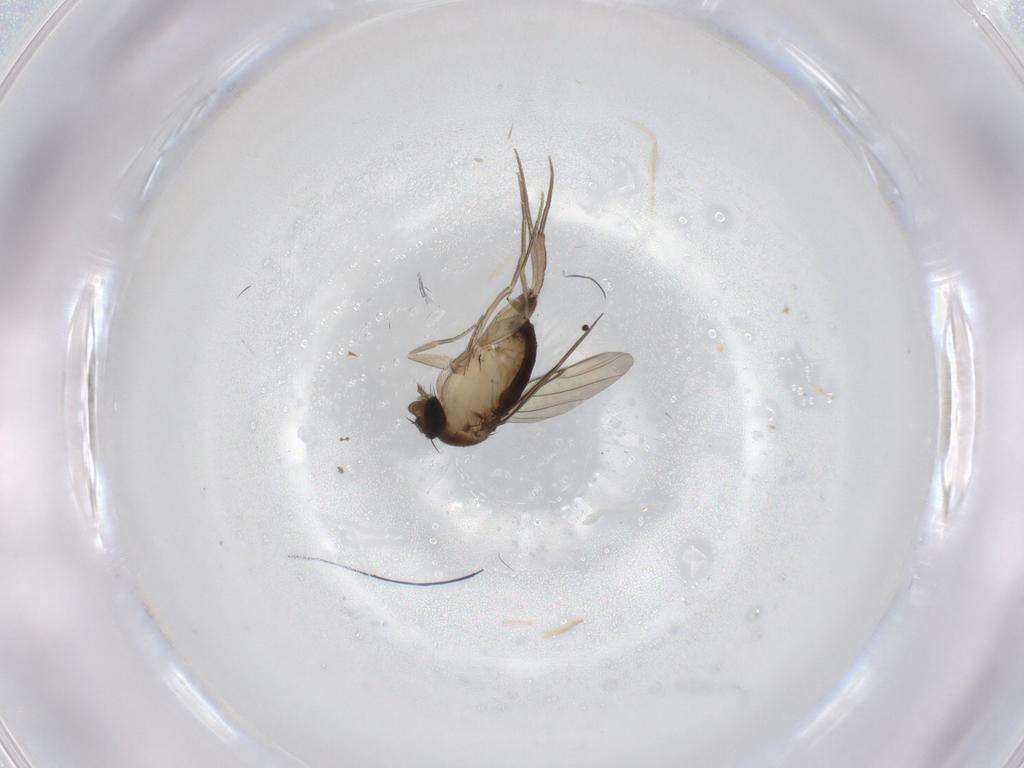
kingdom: Animalia
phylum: Arthropoda
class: Insecta
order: Diptera
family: Phoridae
